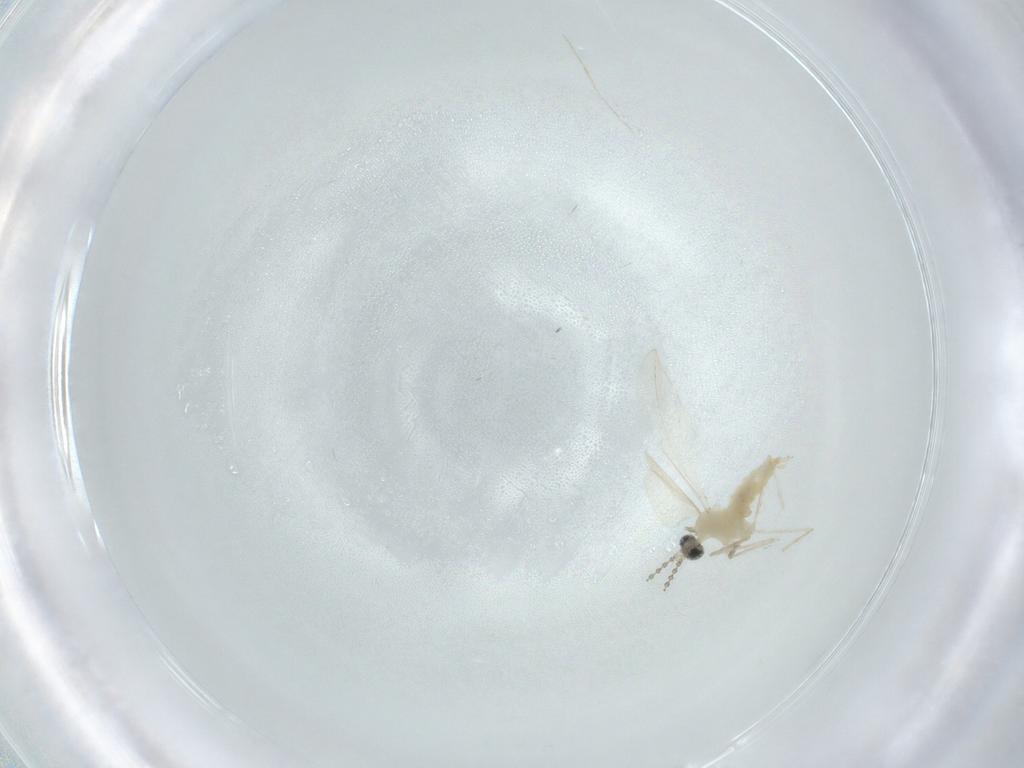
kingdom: Animalia
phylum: Arthropoda
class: Insecta
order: Diptera
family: Cecidomyiidae
